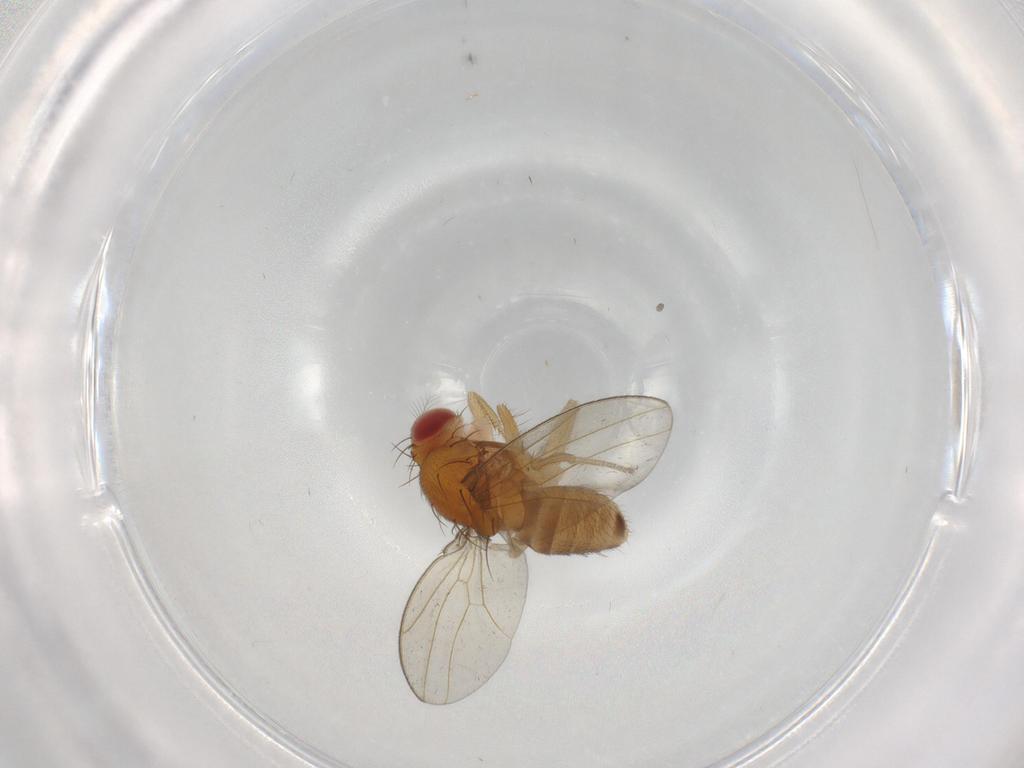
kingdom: Animalia
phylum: Arthropoda
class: Insecta
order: Diptera
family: Drosophilidae
